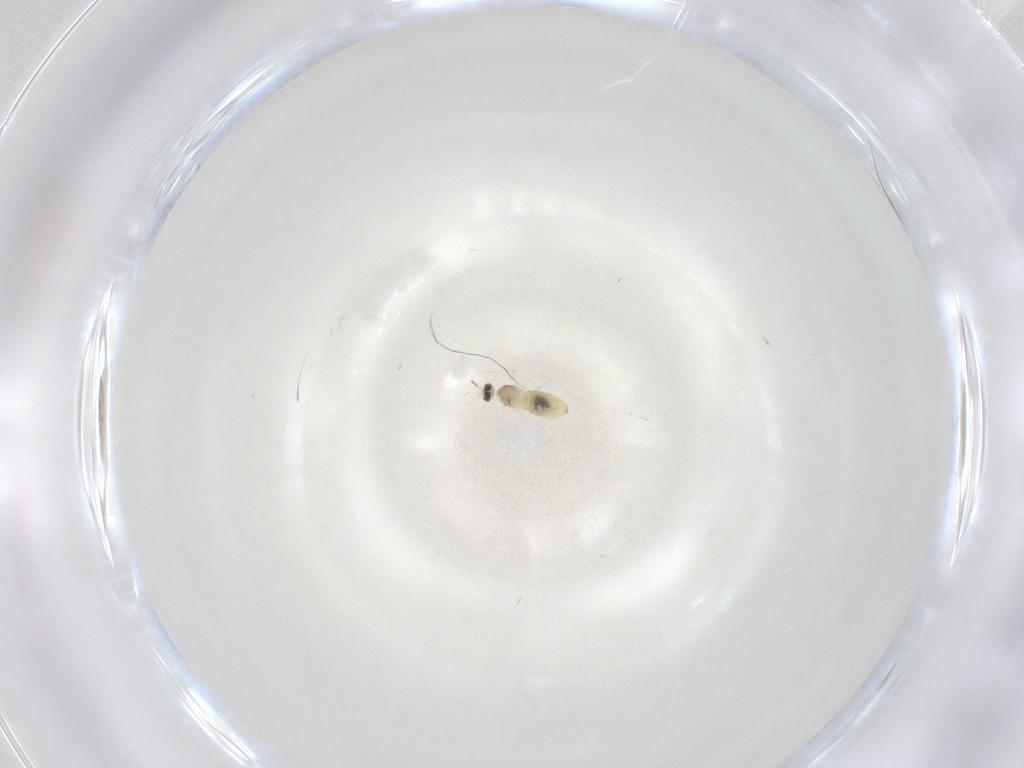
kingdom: Animalia
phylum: Arthropoda
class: Insecta
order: Diptera
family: Cecidomyiidae
